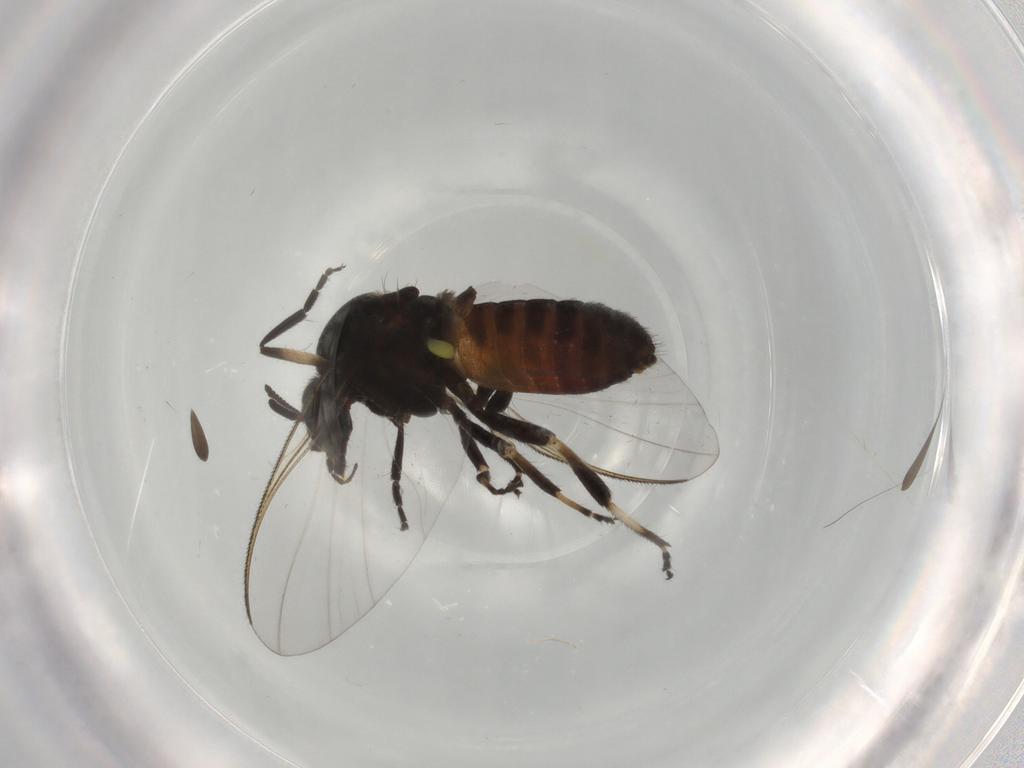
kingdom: Animalia
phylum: Arthropoda
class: Insecta
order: Diptera
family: Simuliidae
